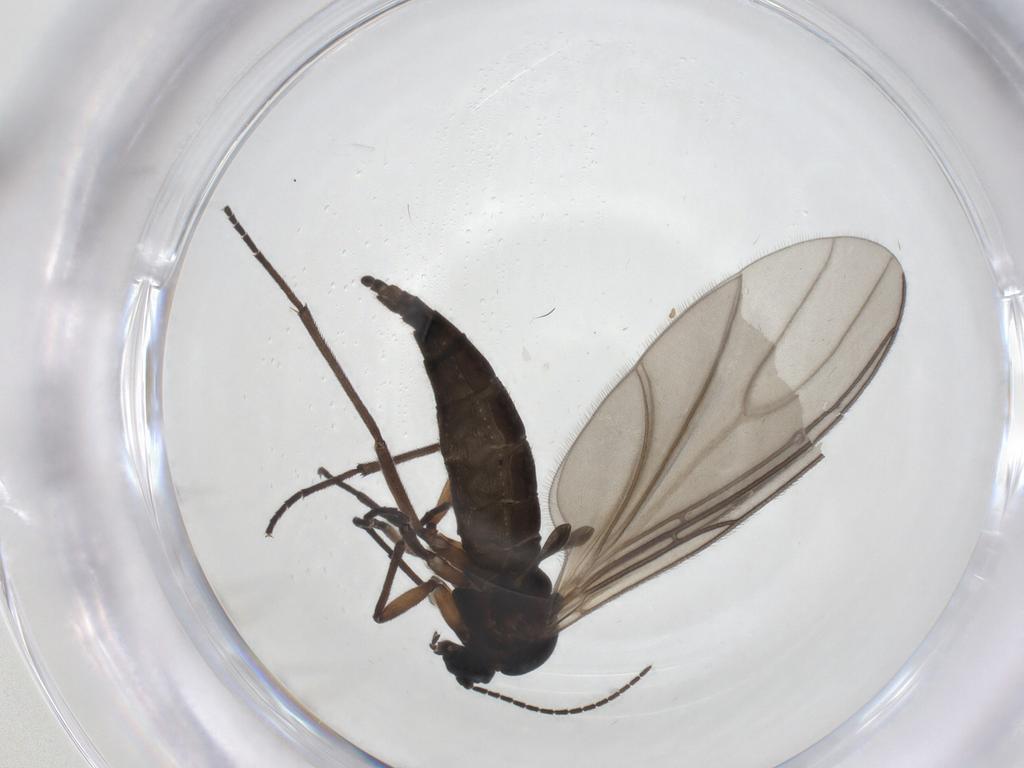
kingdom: Animalia
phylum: Arthropoda
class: Insecta
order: Diptera
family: Sciaridae
